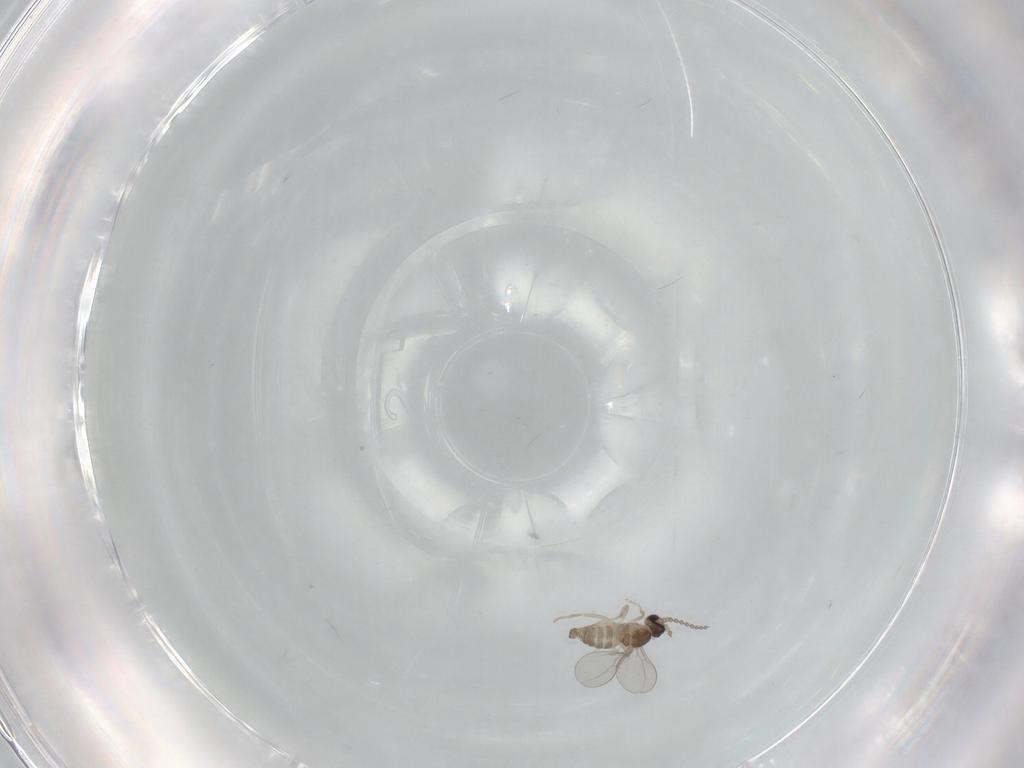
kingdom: Animalia
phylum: Arthropoda
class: Insecta
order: Diptera
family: Cecidomyiidae
